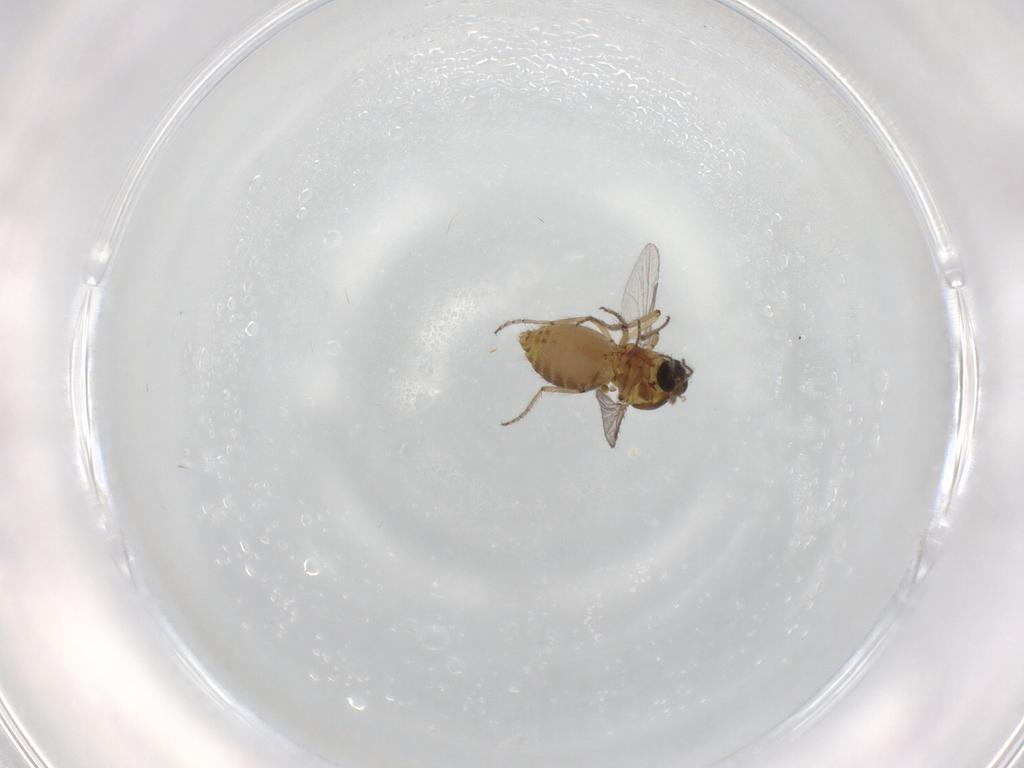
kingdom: Animalia
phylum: Arthropoda
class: Insecta
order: Diptera
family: Ceratopogonidae
